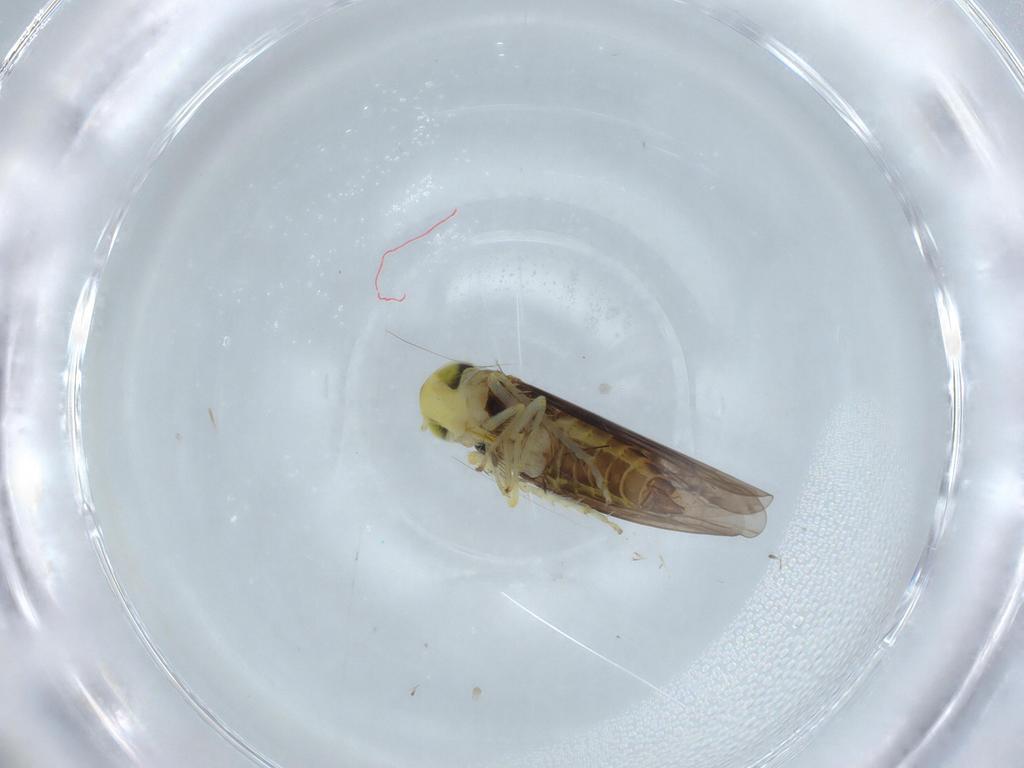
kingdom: Animalia
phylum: Arthropoda
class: Insecta
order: Hemiptera
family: Cicadellidae
